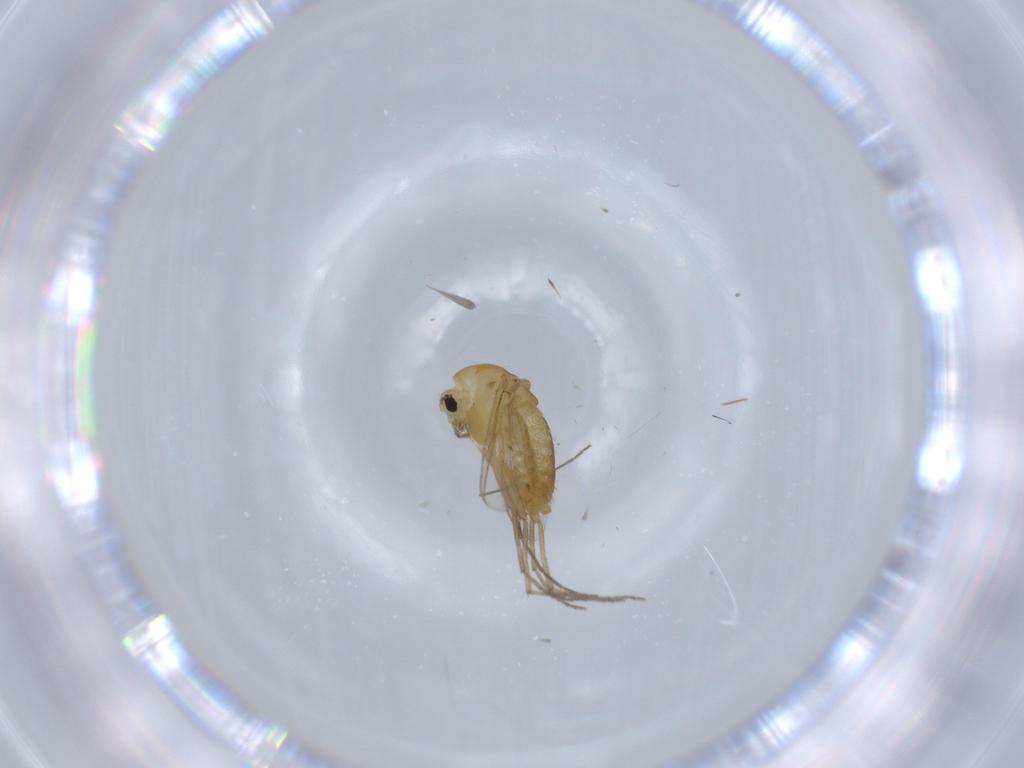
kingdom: Animalia
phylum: Arthropoda
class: Insecta
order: Diptera
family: Chironomidae
